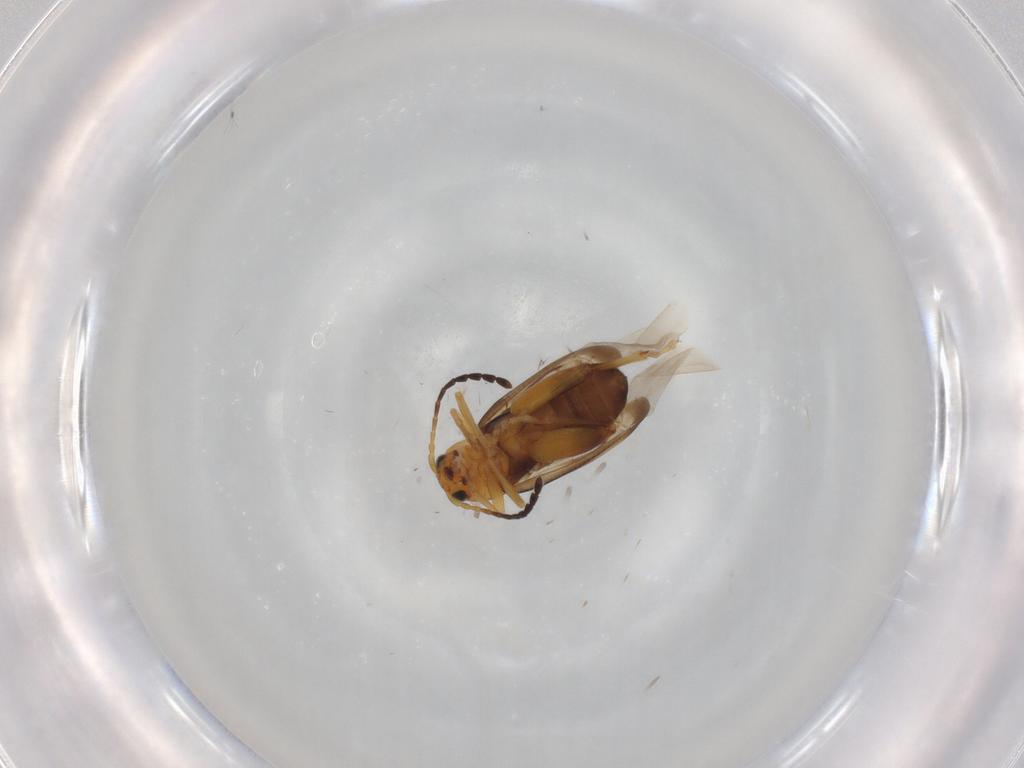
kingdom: Animalia
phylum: Arthropoda
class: Insecta
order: Coleoptera
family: Chrysomelidae
